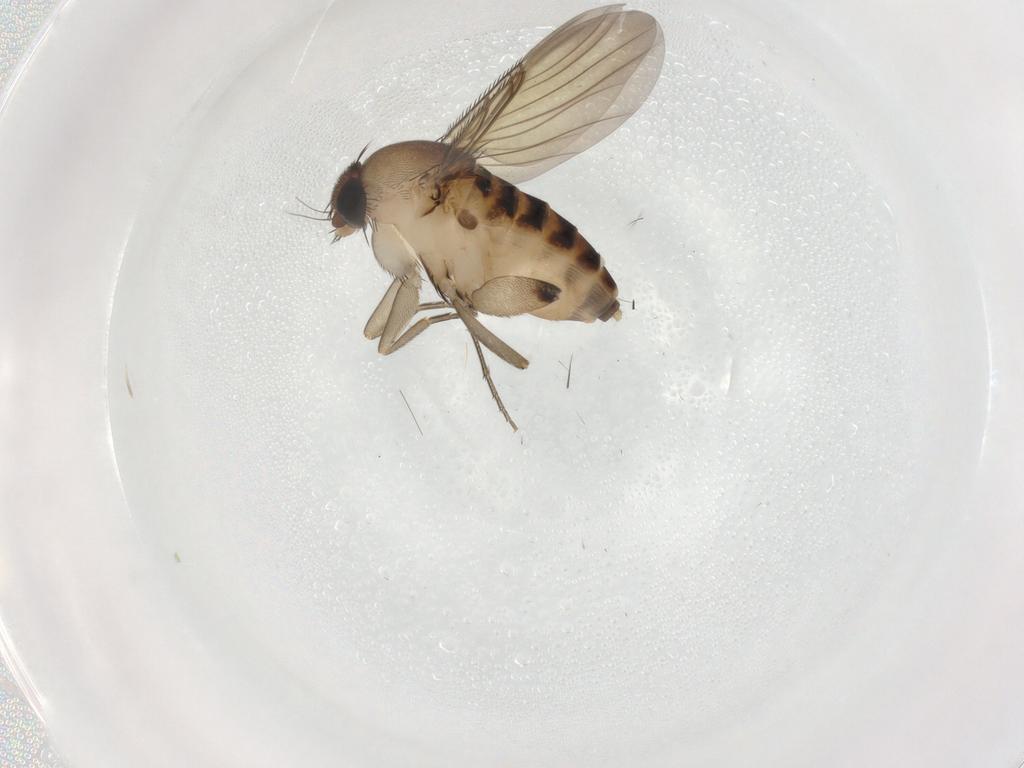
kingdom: Animalia
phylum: Arthropoda
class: Insecta
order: Diptera
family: Phoridae
